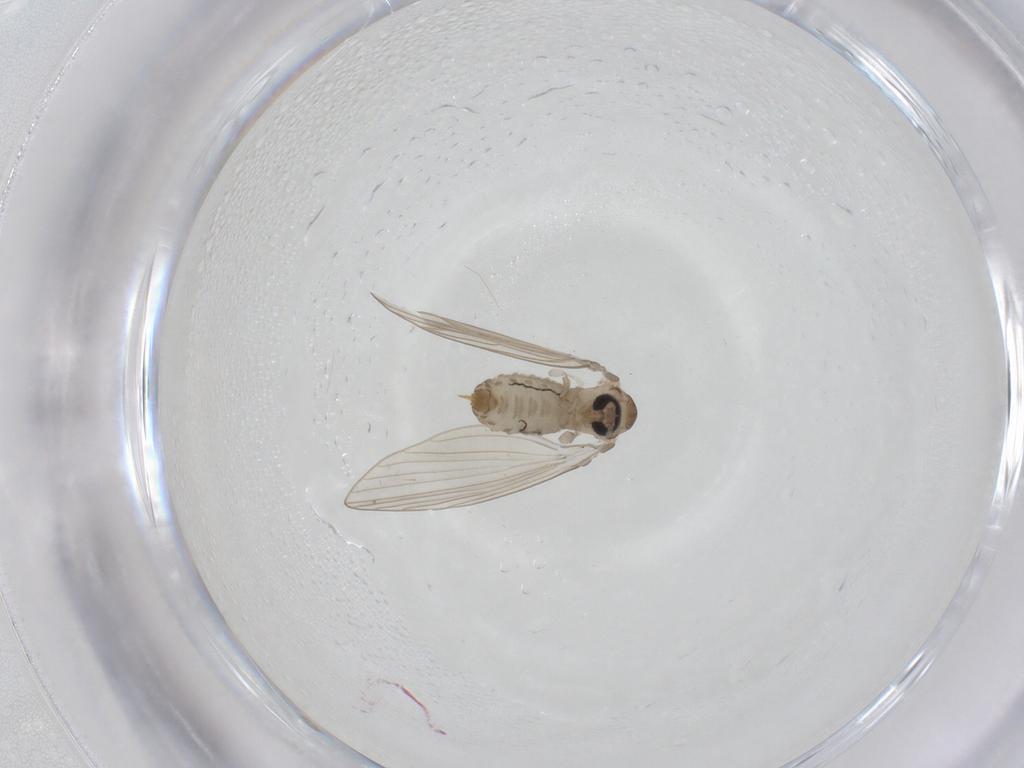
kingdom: Animalia
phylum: Arthropoda
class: Insecta
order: Diptera
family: Psychodidae
